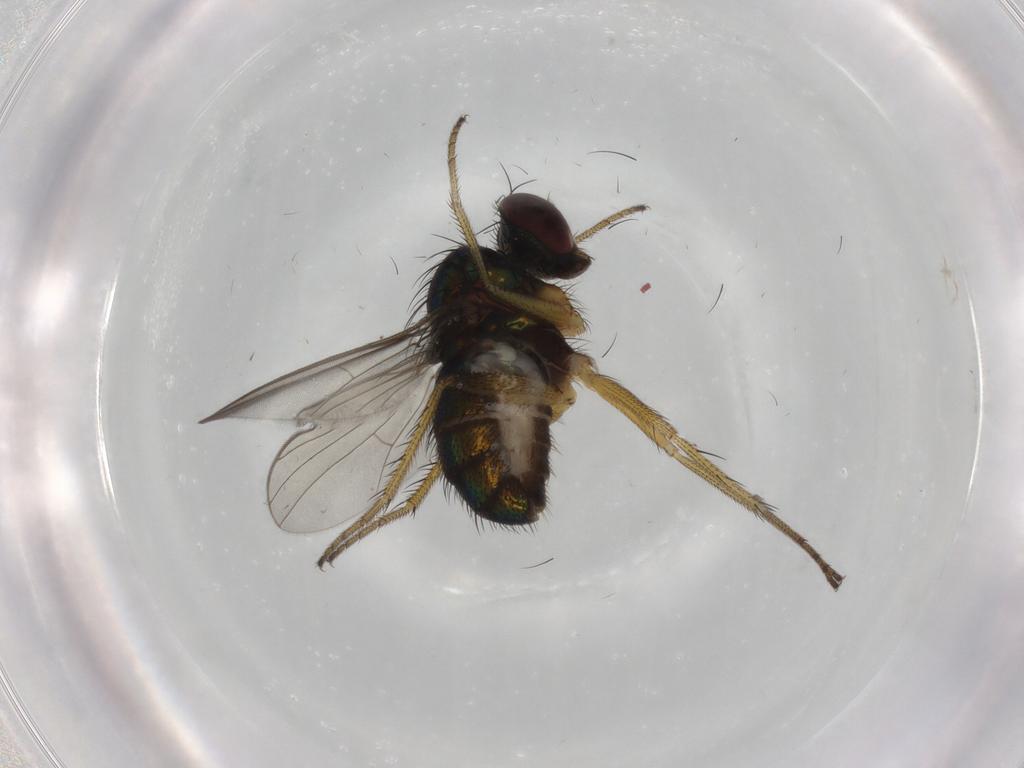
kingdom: Animalia
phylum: Arthropoda
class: Insecta
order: Diptera
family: Dolichopodidae
